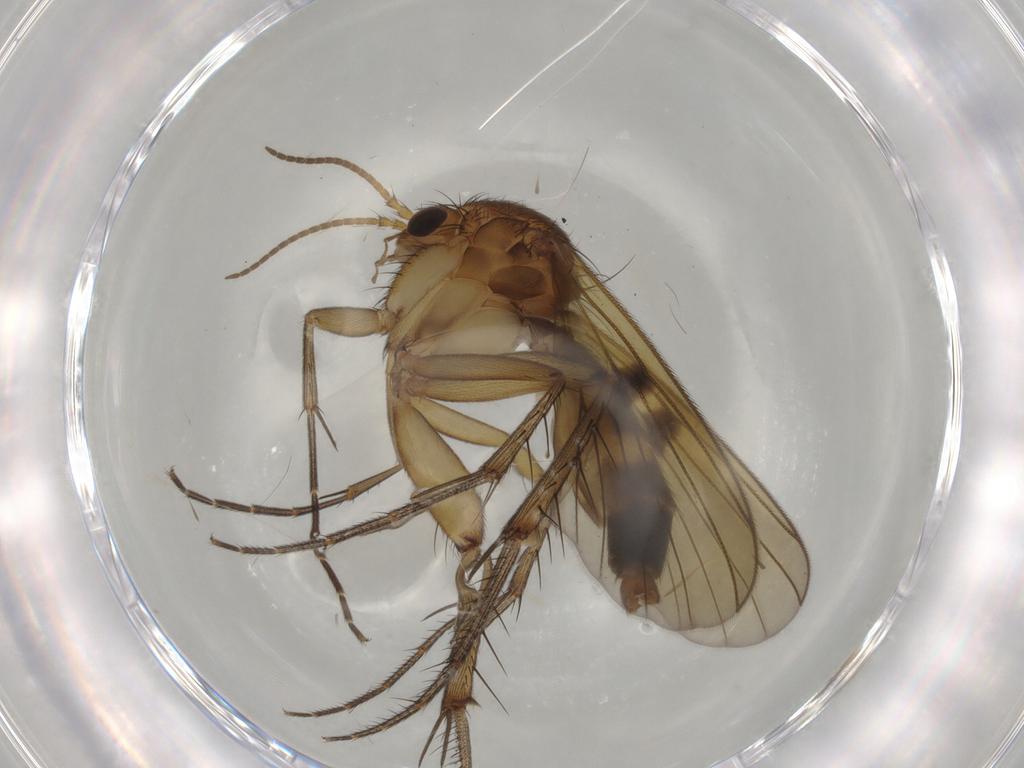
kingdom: Animalia
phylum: Arthropoda
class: Insecta
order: Diptera
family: Mycetophilidae
